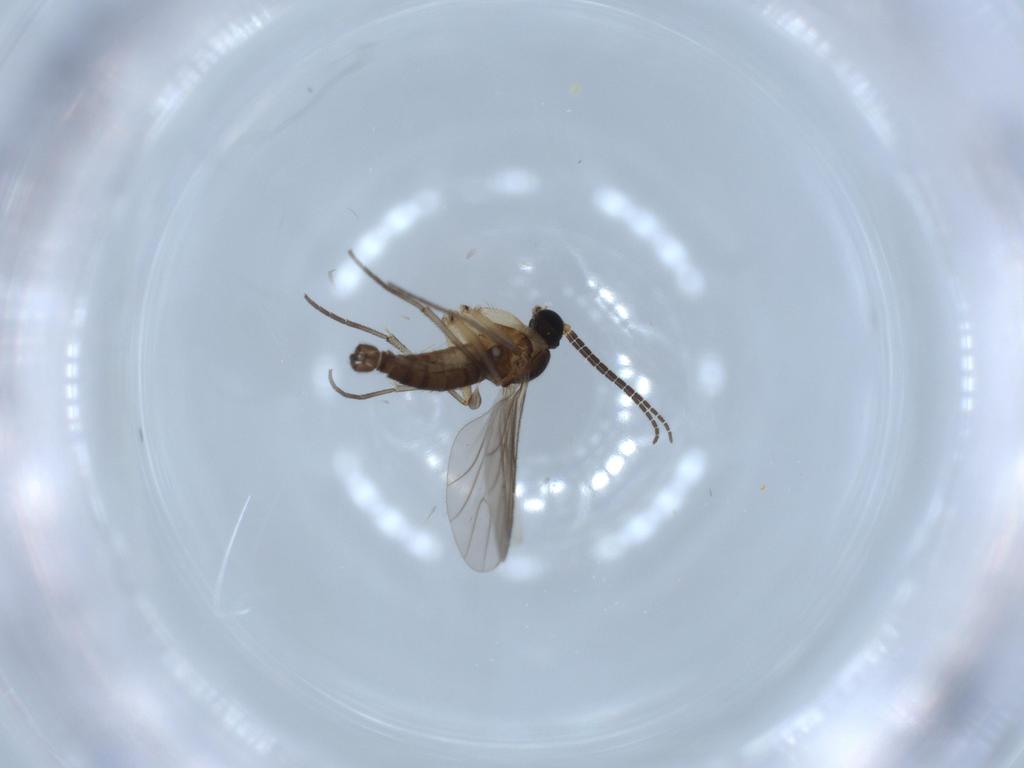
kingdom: Animalia
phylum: Arthropoda
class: Insecta
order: Diptera
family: Sciaridae
